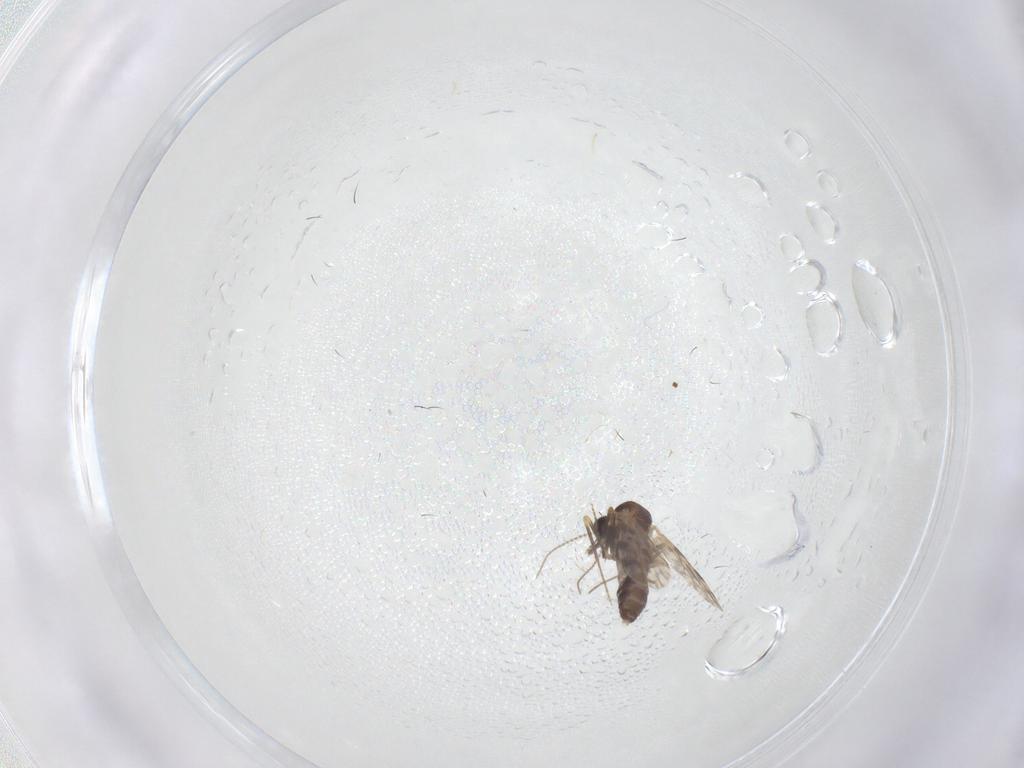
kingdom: Animalia
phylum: Arthropoda
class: Insecta
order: Diptera
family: Ceratopogonidae
